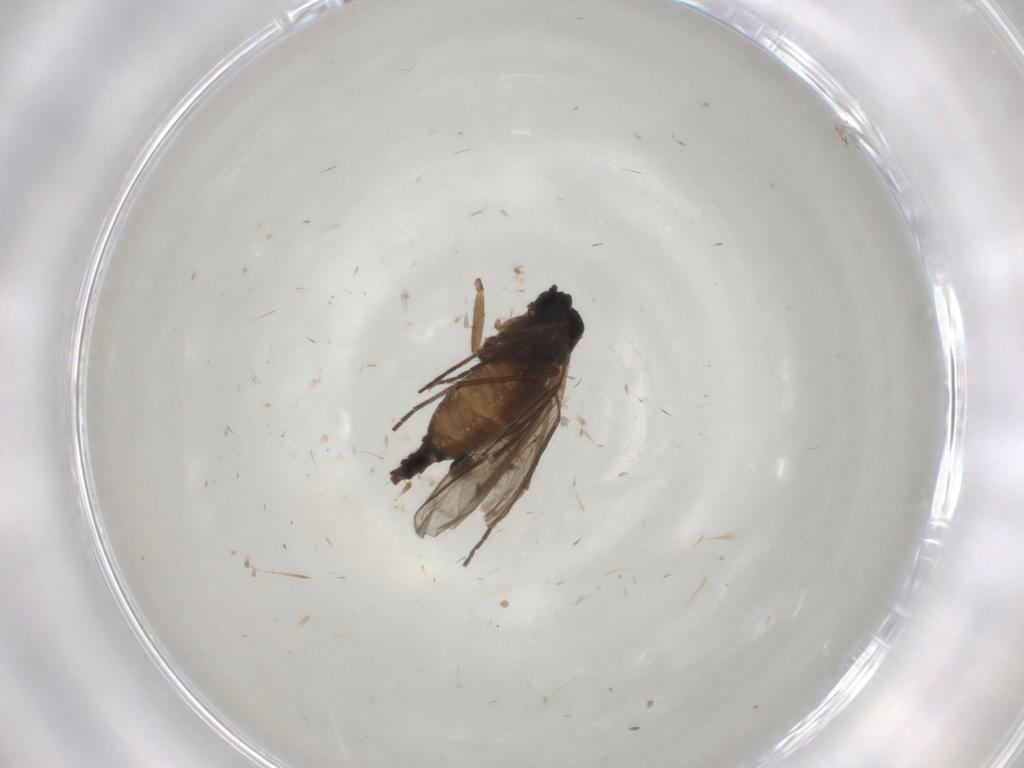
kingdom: Animalia
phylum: Arthropoda
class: Insecta
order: Diptera
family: Sciaridae
